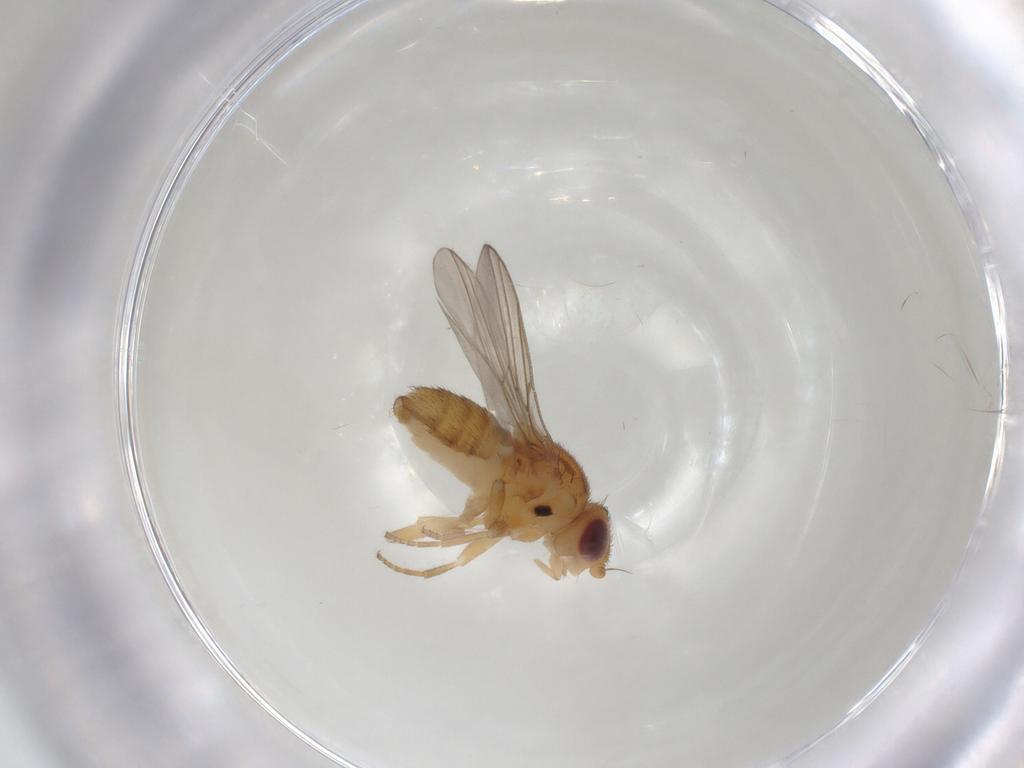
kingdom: Animalia
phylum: Arthropoda
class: Insecta
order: Diptera
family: Chloropidae
